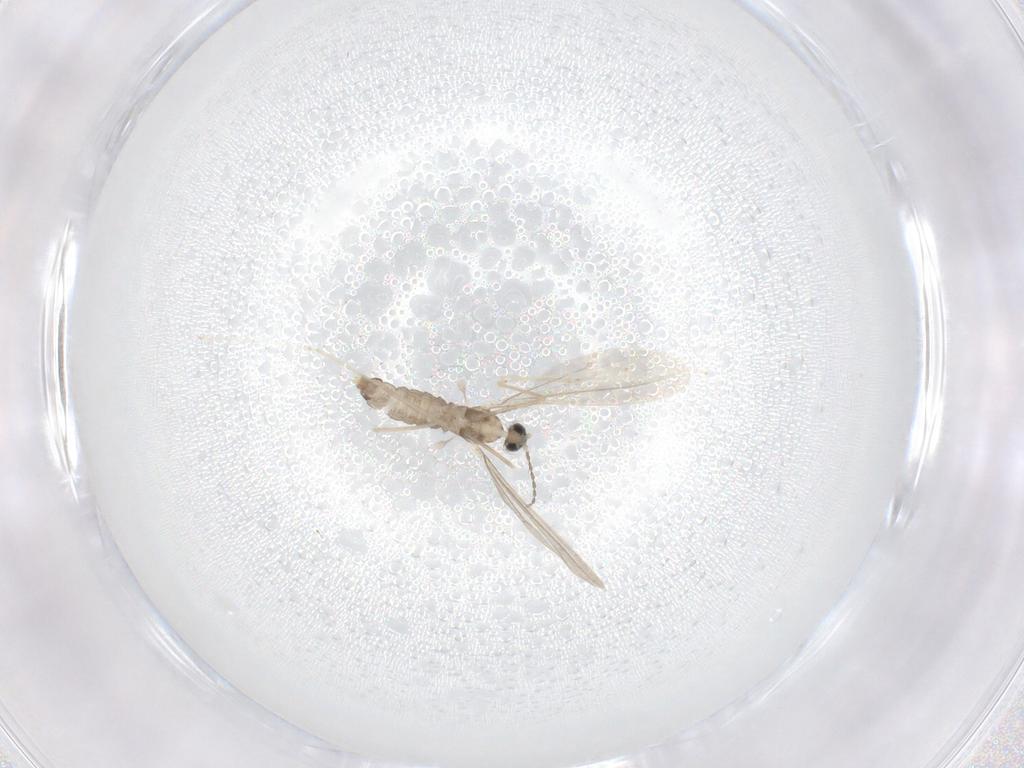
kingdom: Animalia
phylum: Arthropoda
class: Insecta
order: Diptera
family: Cecidomyiidae
